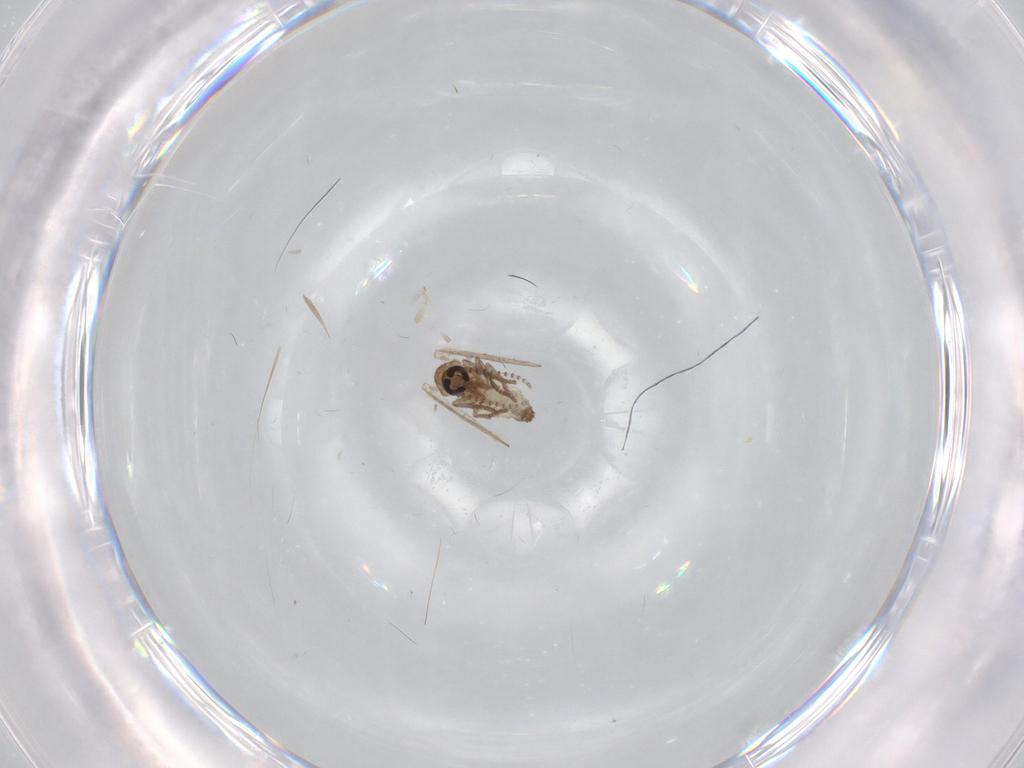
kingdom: Animalia
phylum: Arthropoda
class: Insecta
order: Diptera
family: Psychodidae
